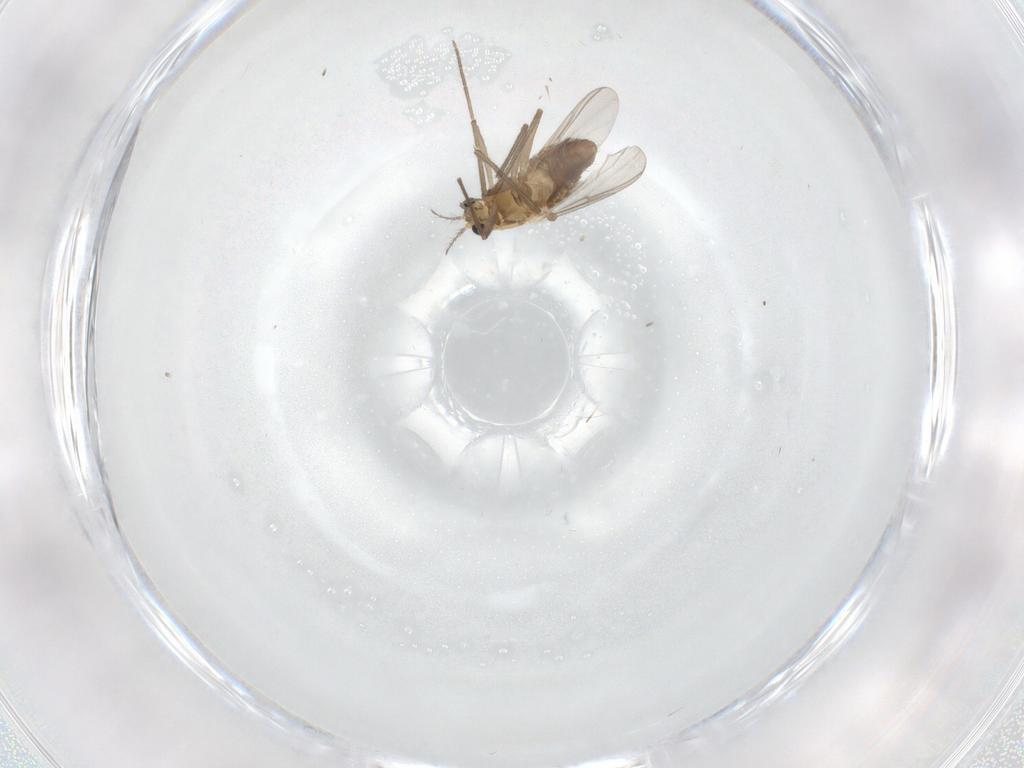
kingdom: Animalia
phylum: Arthropoda
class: Insecta
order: Diptera
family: Chironomidae
